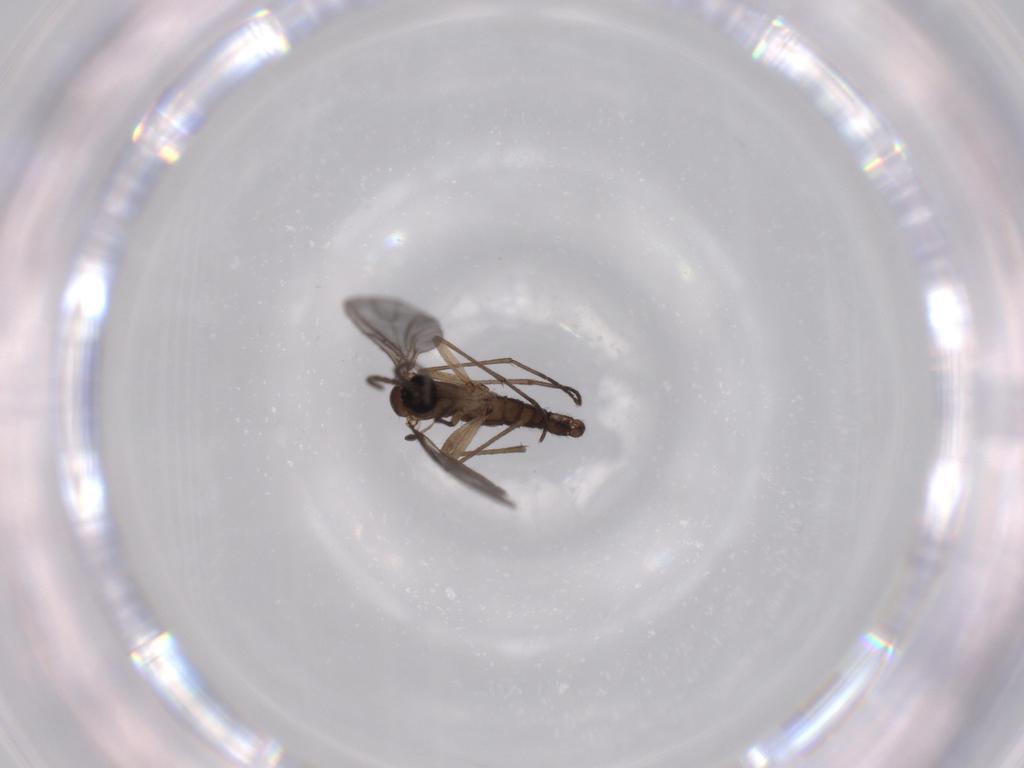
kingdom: Animalia
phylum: Arthropoda
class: Insecta
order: Diptera
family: Sciaridae
